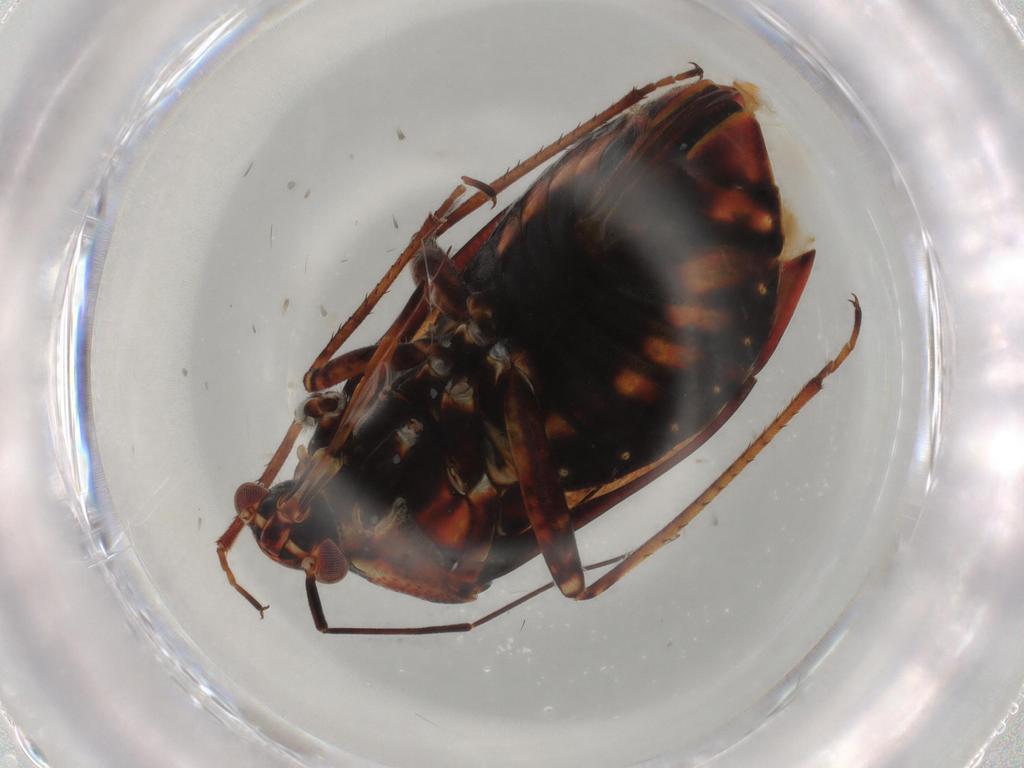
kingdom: Animalia
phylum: Arthropoda
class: Insecta
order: Hemiptera
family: Miridae
